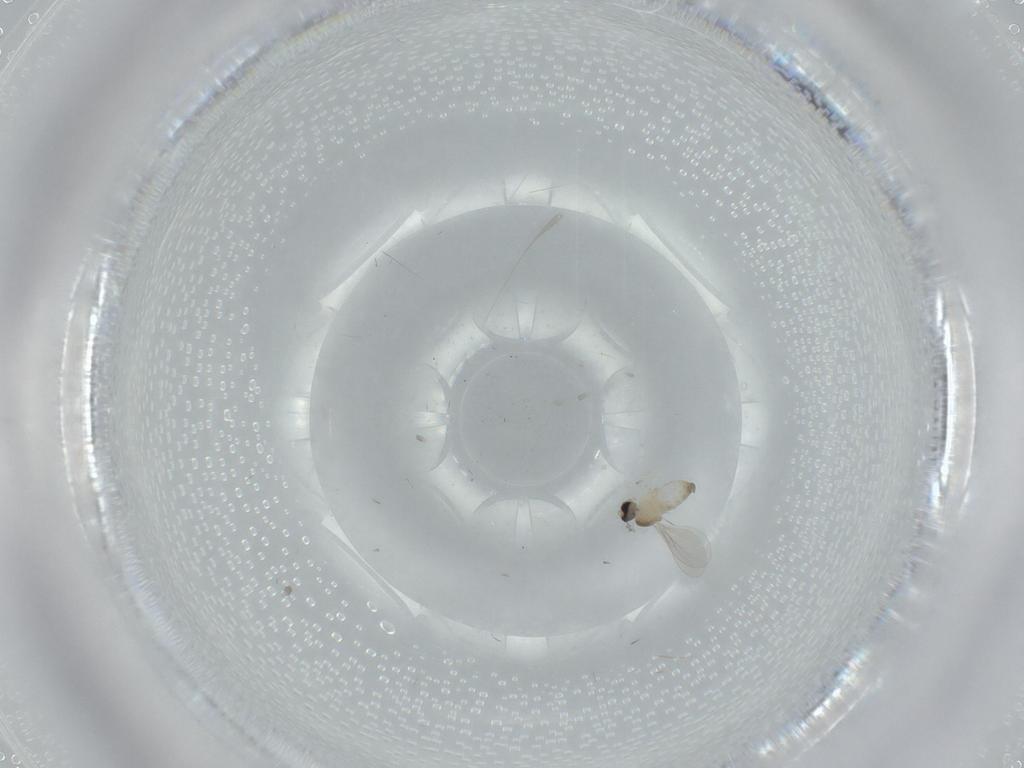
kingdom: Animalia
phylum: Arthropoda
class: Insecta
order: Diptera
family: Cecidomyiidae
